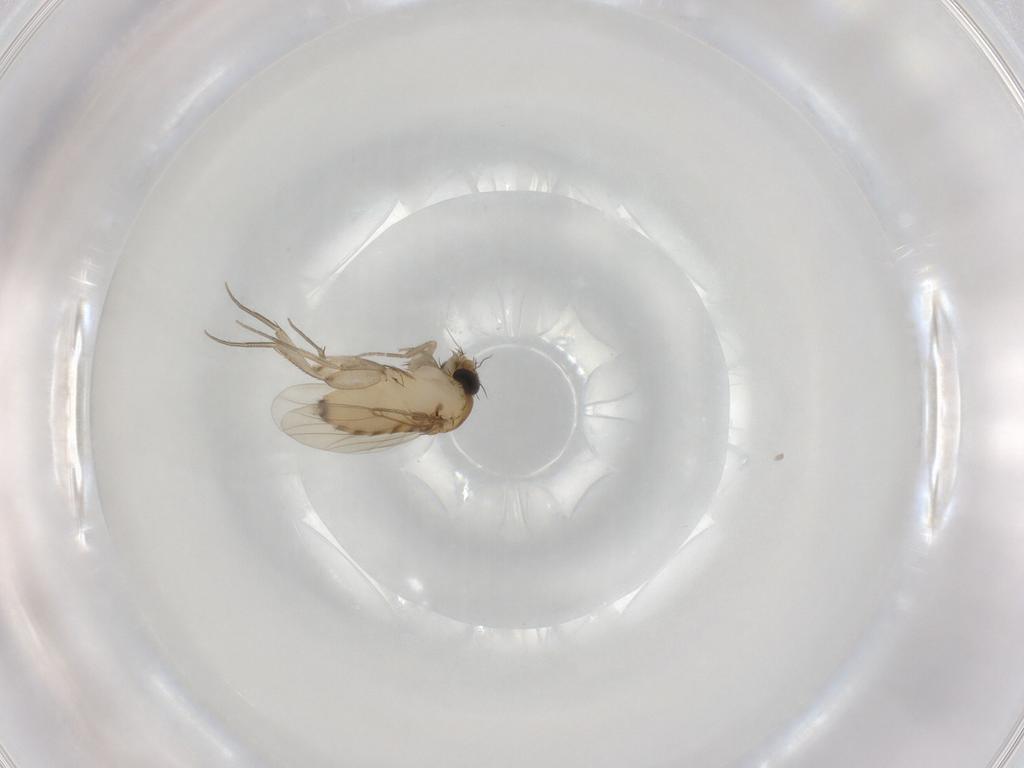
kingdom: Animalia
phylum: Arthropoda
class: Insecta
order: Diptera
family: Phoridae
